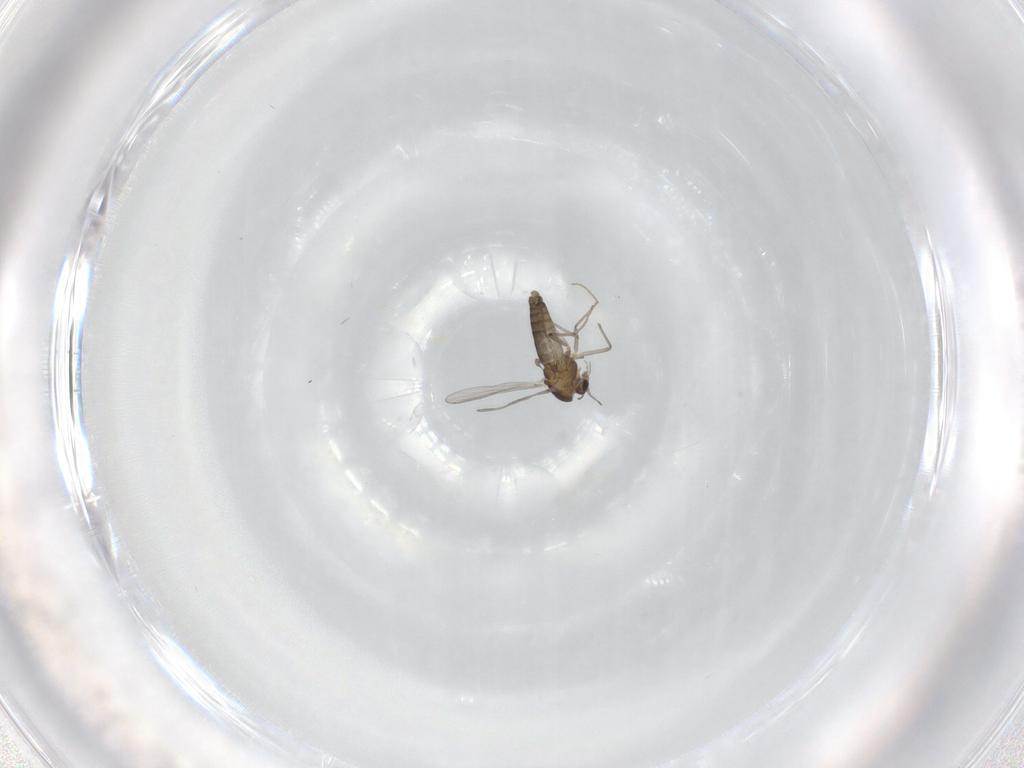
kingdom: Animalia
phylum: Arthropoda
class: Insecta
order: Diptera
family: Chironomidae
